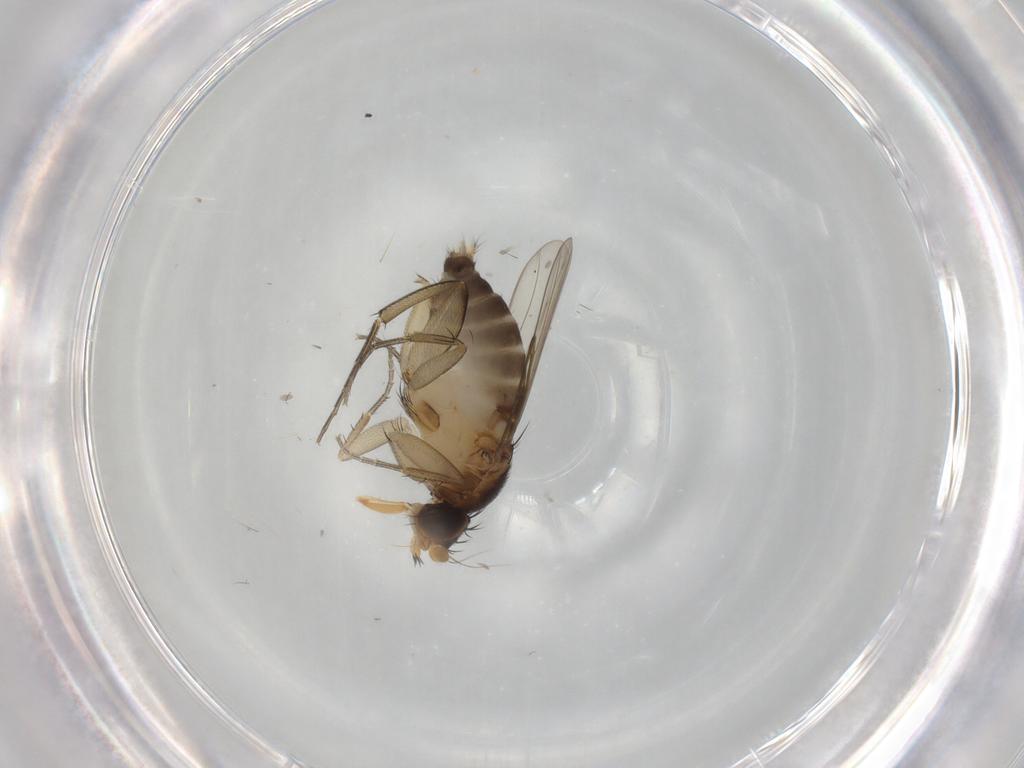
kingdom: Animalia
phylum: Arthropoda
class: Insecta
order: Diptera
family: Phoridae
